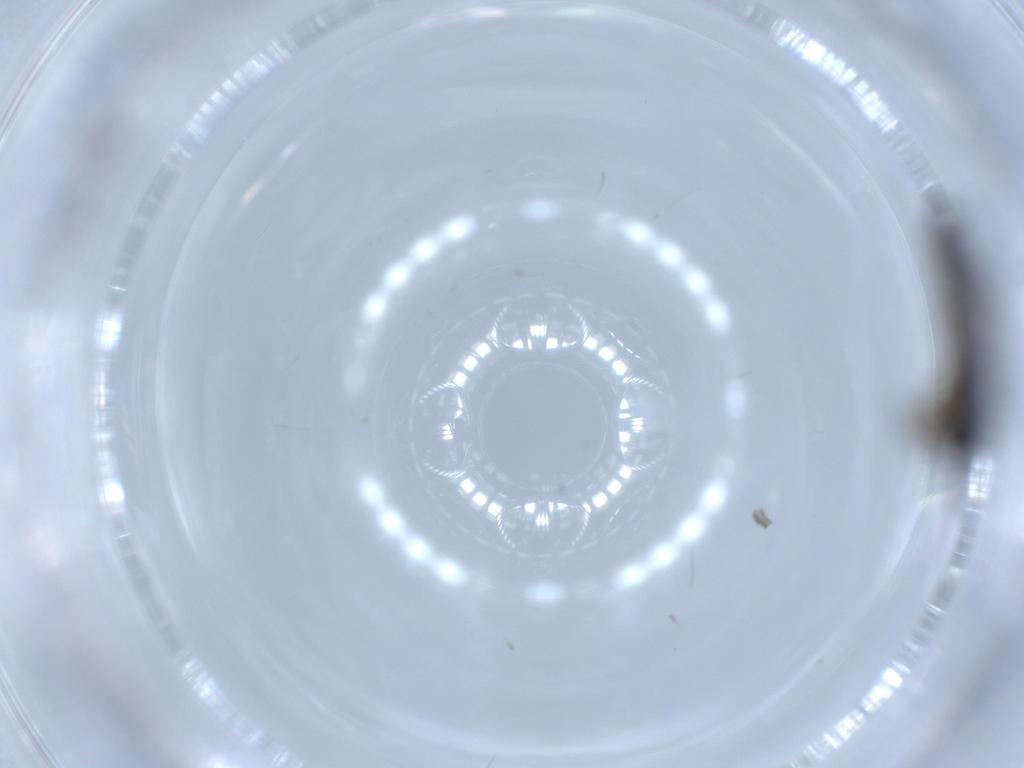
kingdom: Animalia
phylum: Arthropoda
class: Insecta
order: Diptera
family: Sciaridae
